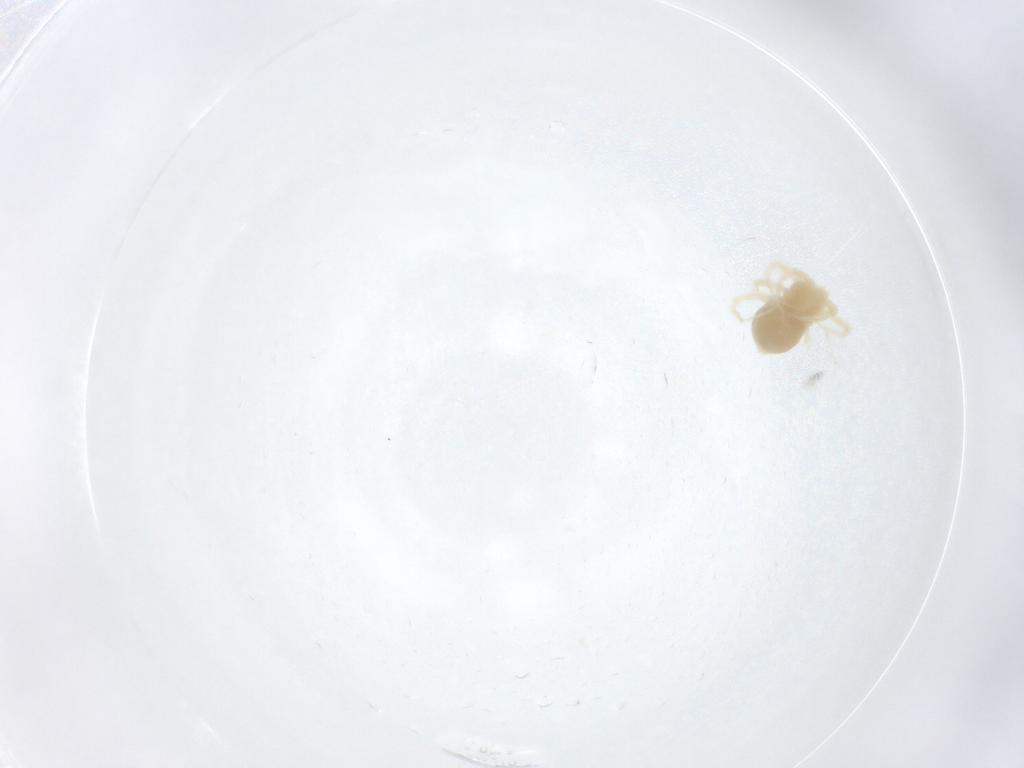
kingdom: Animalia
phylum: Arthropoda
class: Arachnida
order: Trombidiformes
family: Anystidae
